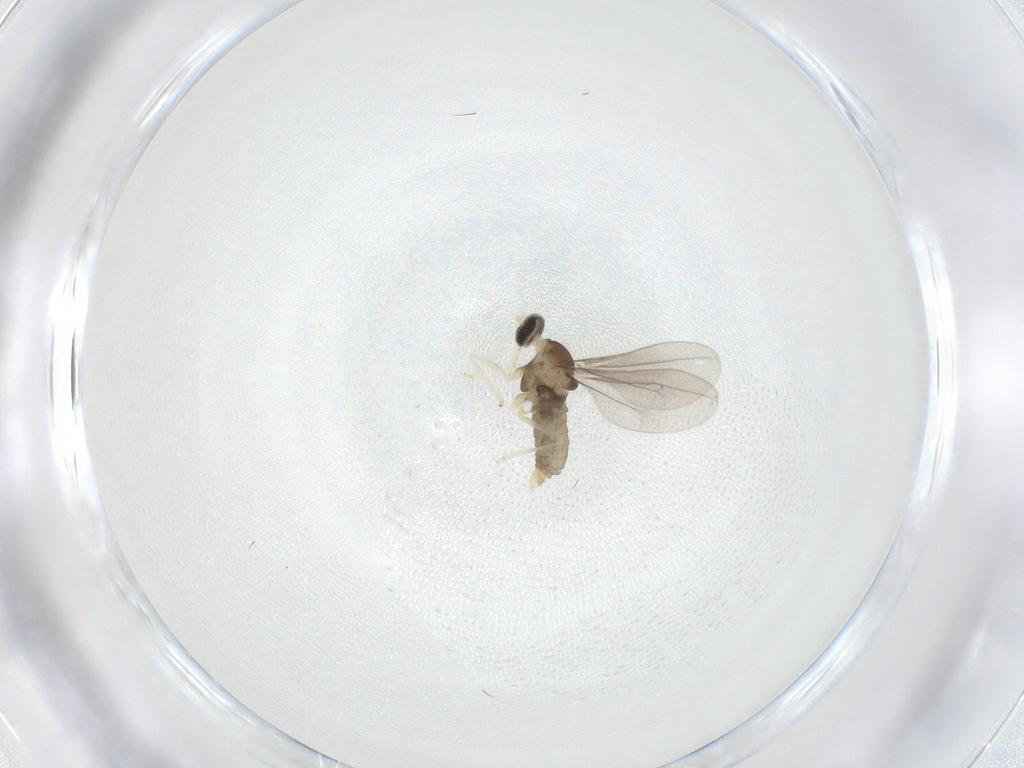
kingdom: Animalia
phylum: Arthropoda
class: Insecta
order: Diptera
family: Cecidomyiidae
